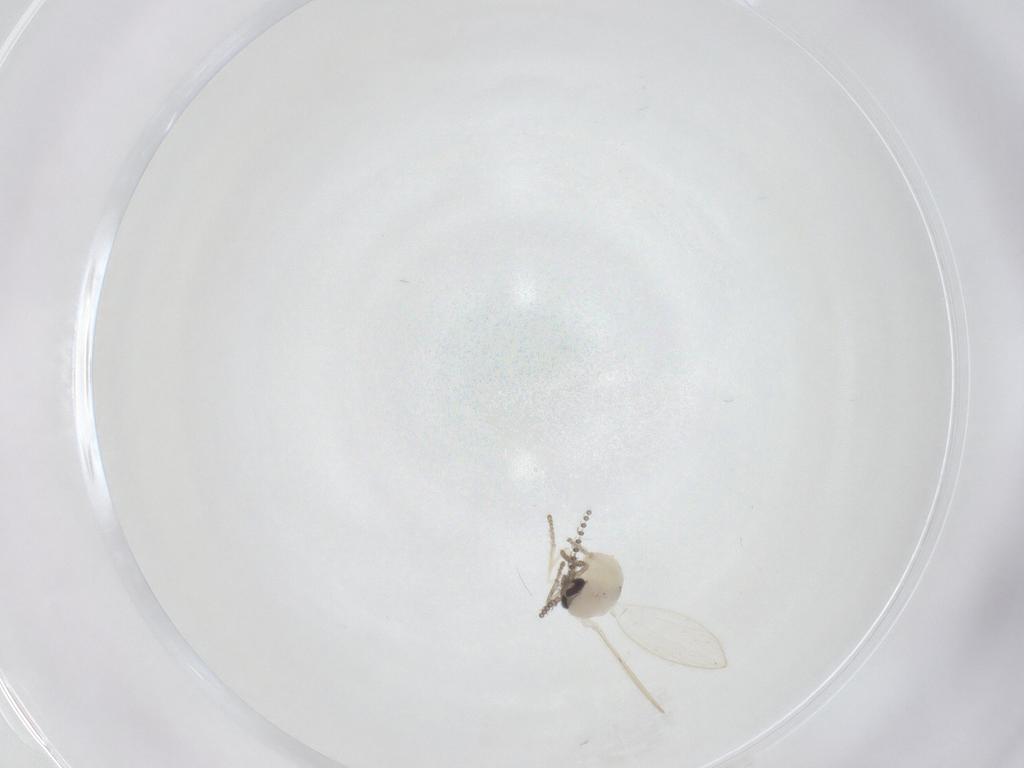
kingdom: Animalia
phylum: Arthropoda
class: Insecta
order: Diptera
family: Psychodidae
